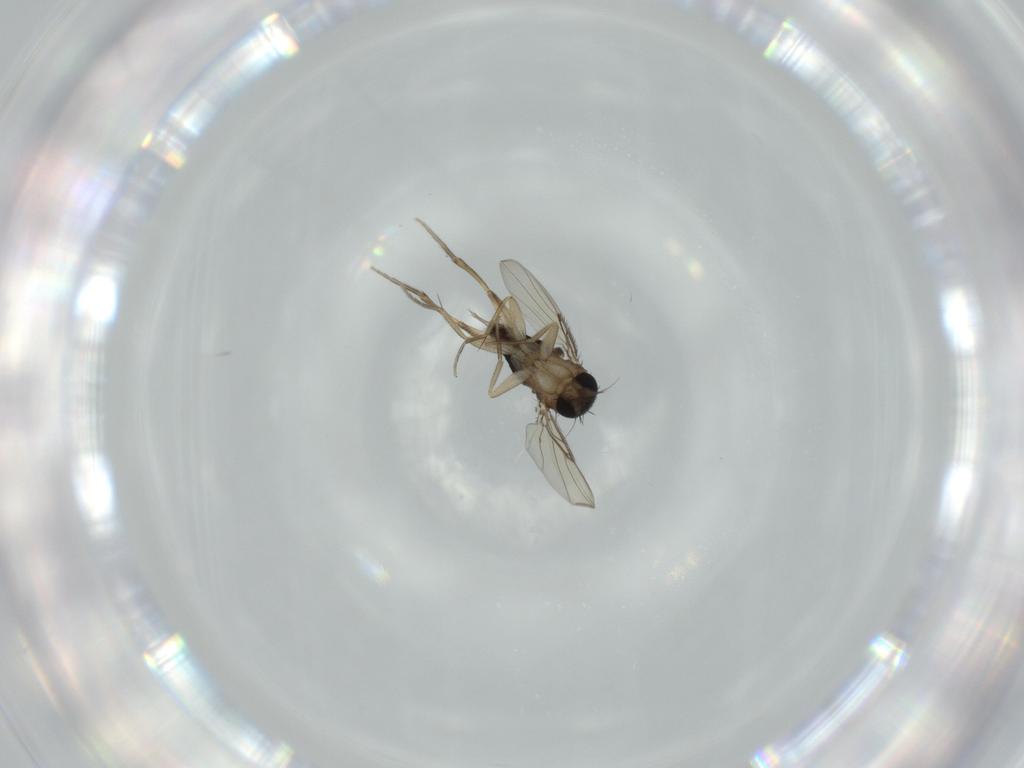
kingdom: Animalia
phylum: Arthropoda
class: Insecta
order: Diptera
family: Phoridae
